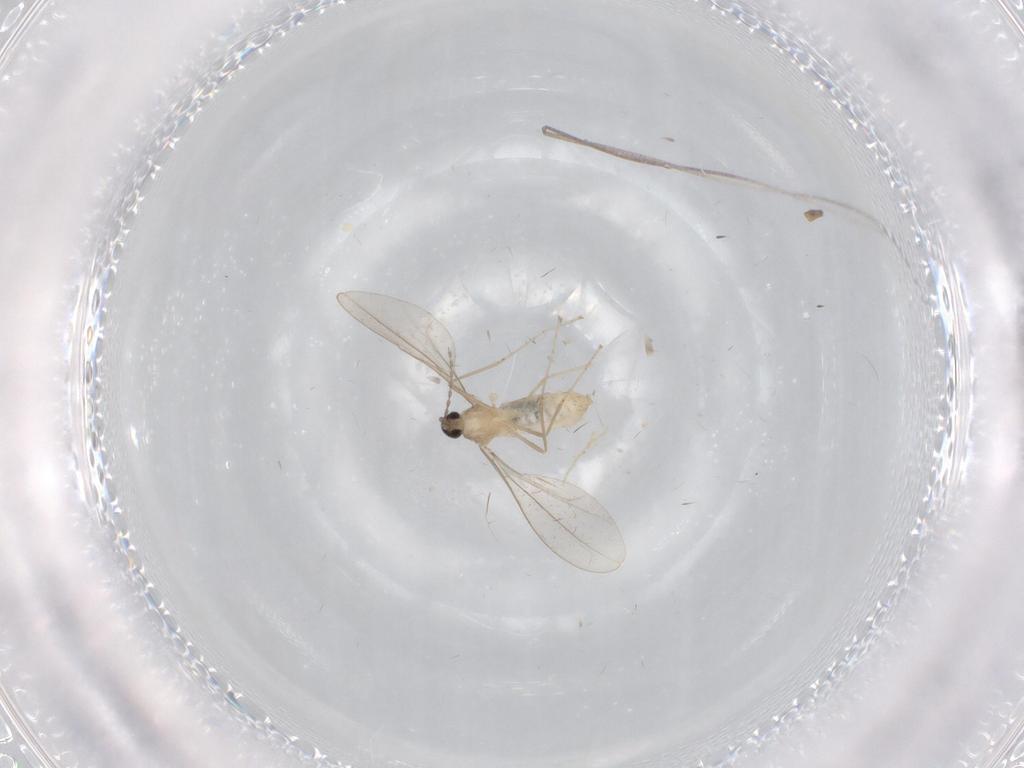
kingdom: Animalia
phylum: Arthropoda
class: Insecta
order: Diptera
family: Cecidomyiidae
